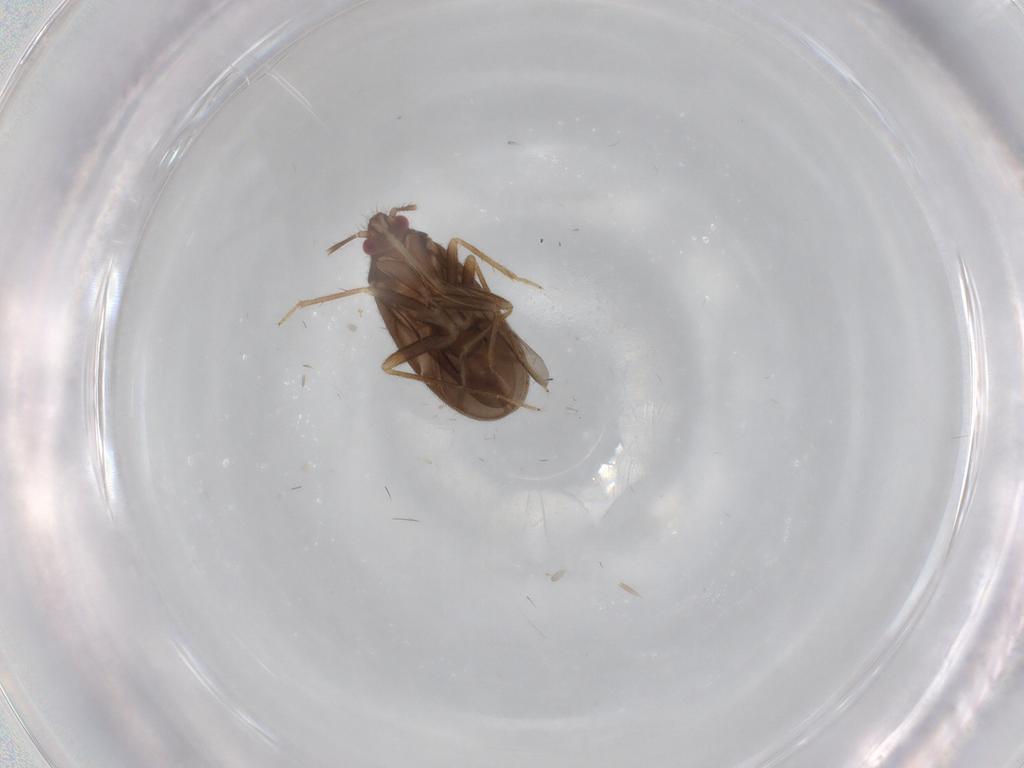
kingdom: Animalia
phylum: Arthropoda
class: Insecta
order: Hemiptera
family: Ceratocombidae
